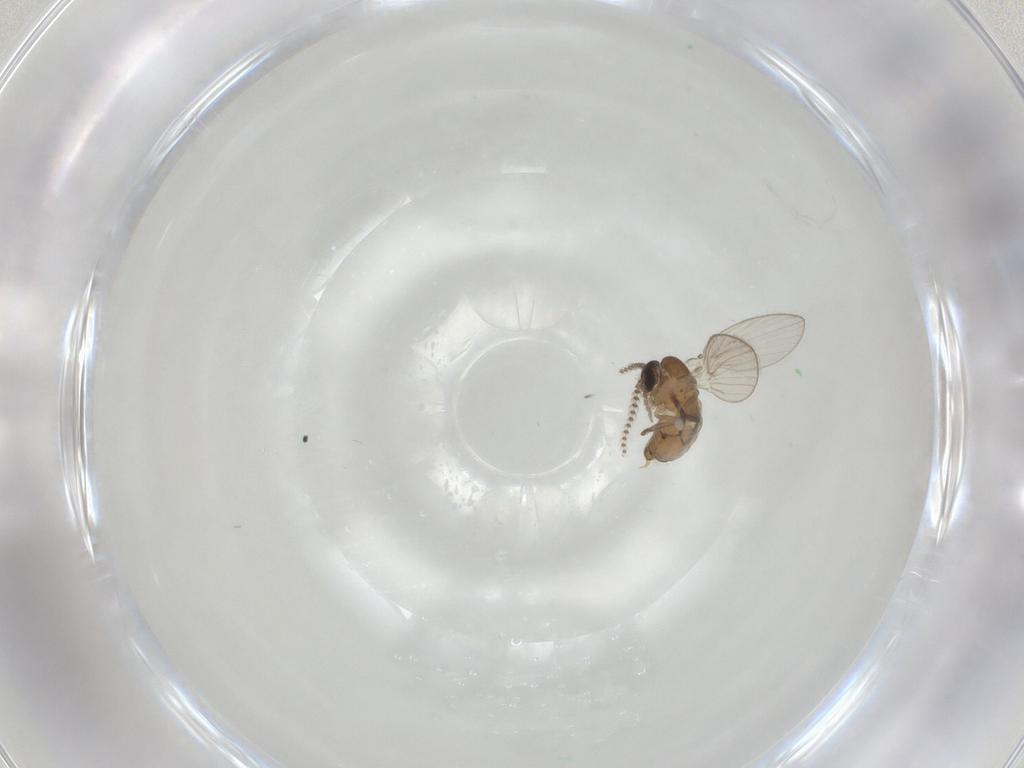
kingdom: Animalia
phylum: Arthropoda
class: Insecta
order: Diptera
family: Psychodidae
